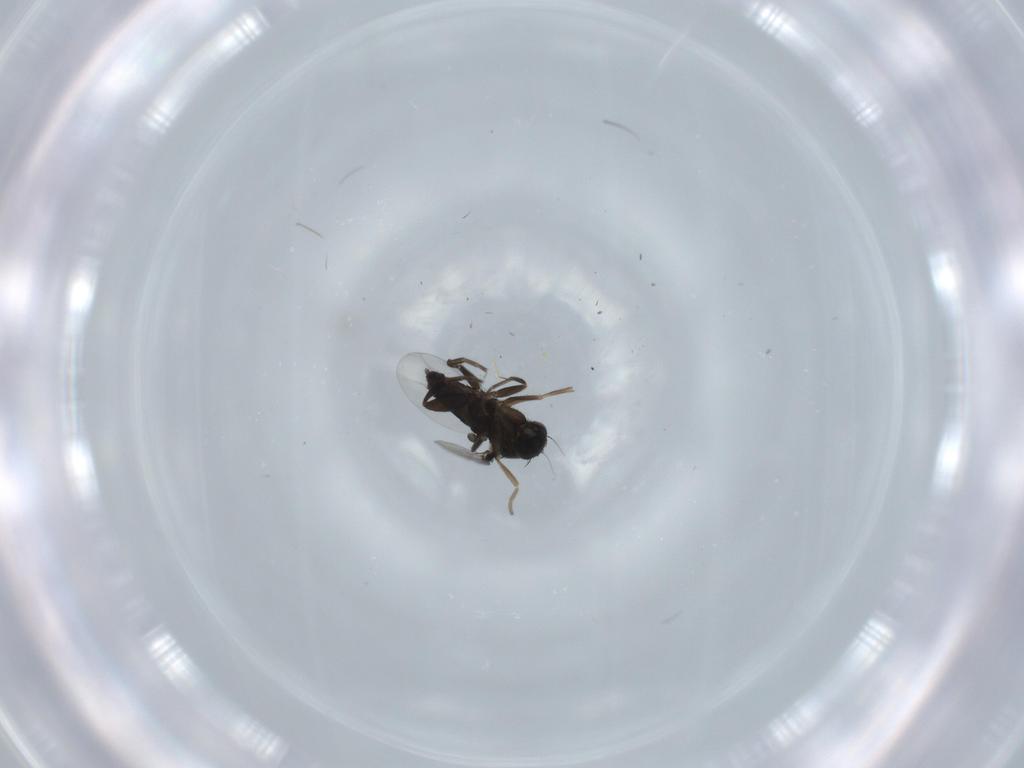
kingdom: Animalia
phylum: Arthropoda
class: Insecta
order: Diptera
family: Phoridae
